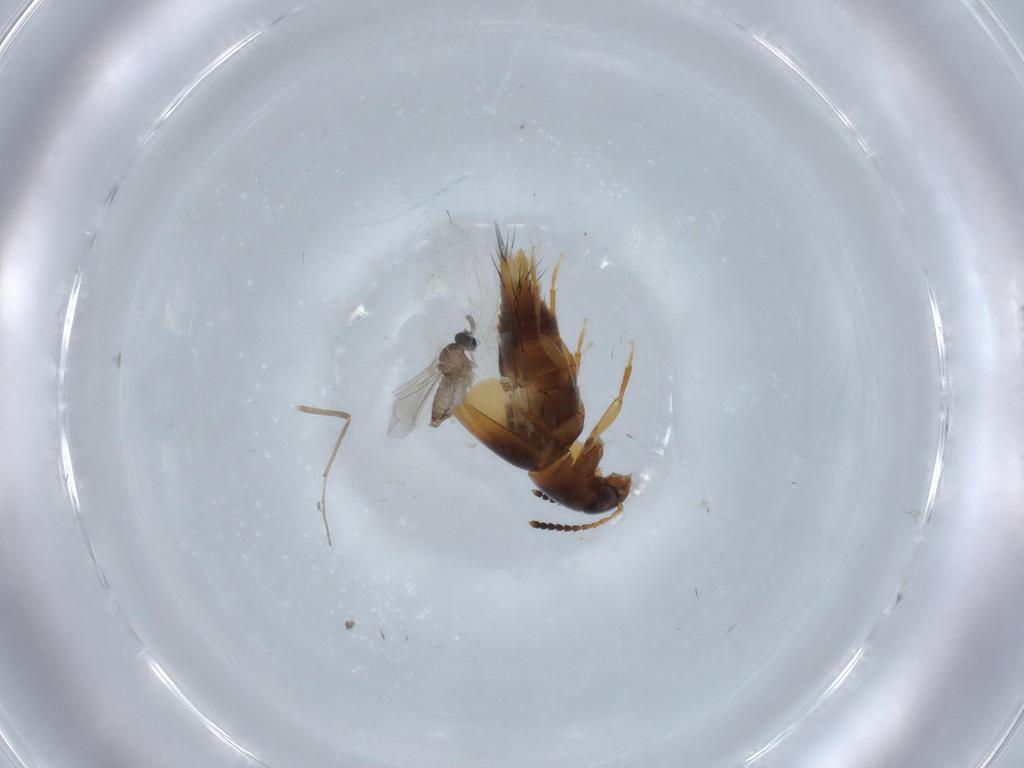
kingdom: Animalia
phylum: Arthropoda
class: Insecta
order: Diptera
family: Cecidomyiidae
